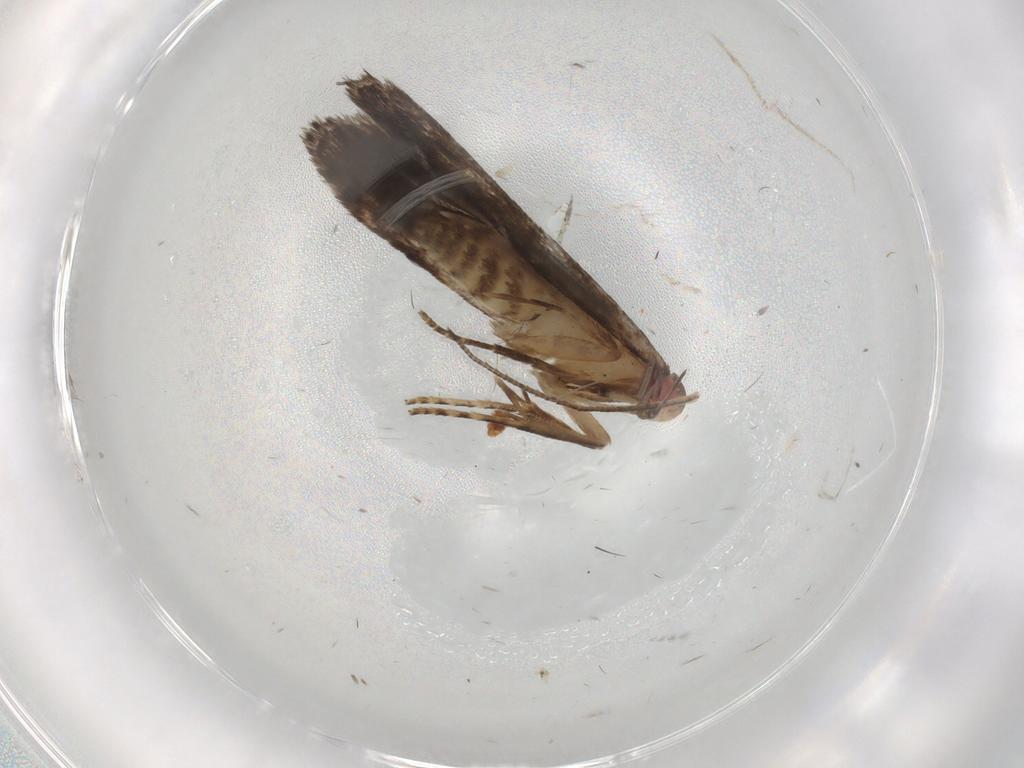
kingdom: Animalia
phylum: Arthropoda
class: Insecta
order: Lepidoptera
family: Gelechiidae
